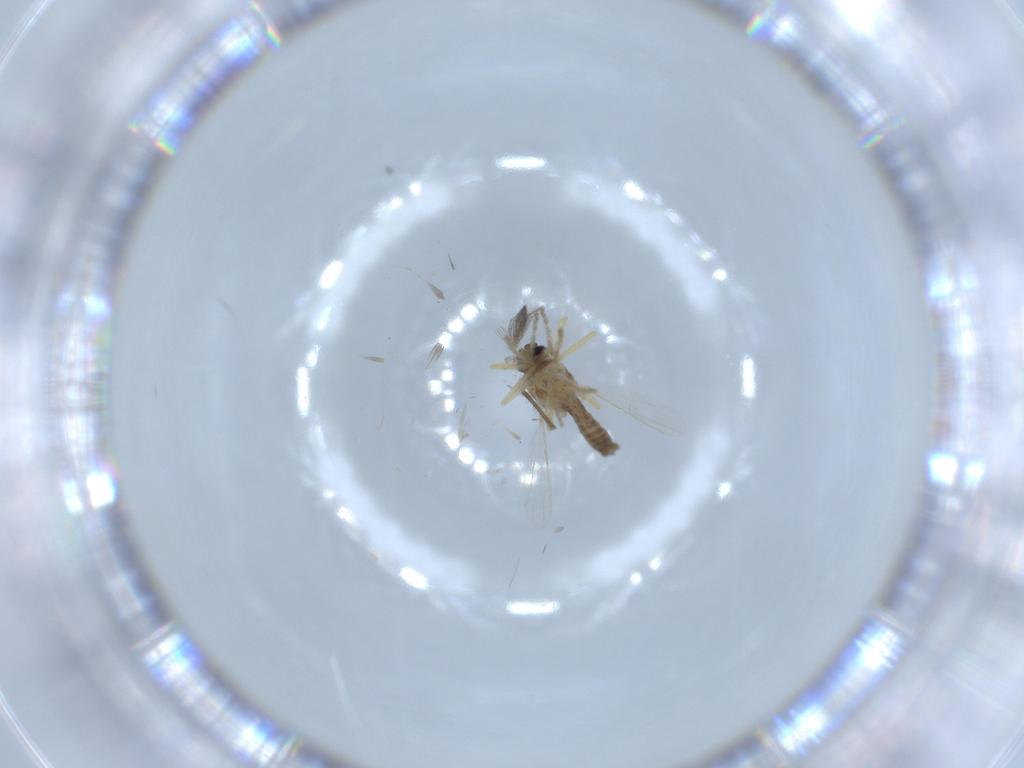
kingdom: Animalia
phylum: Arthropoda
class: Insecta
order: Diptera
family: Ceratopogonidae
